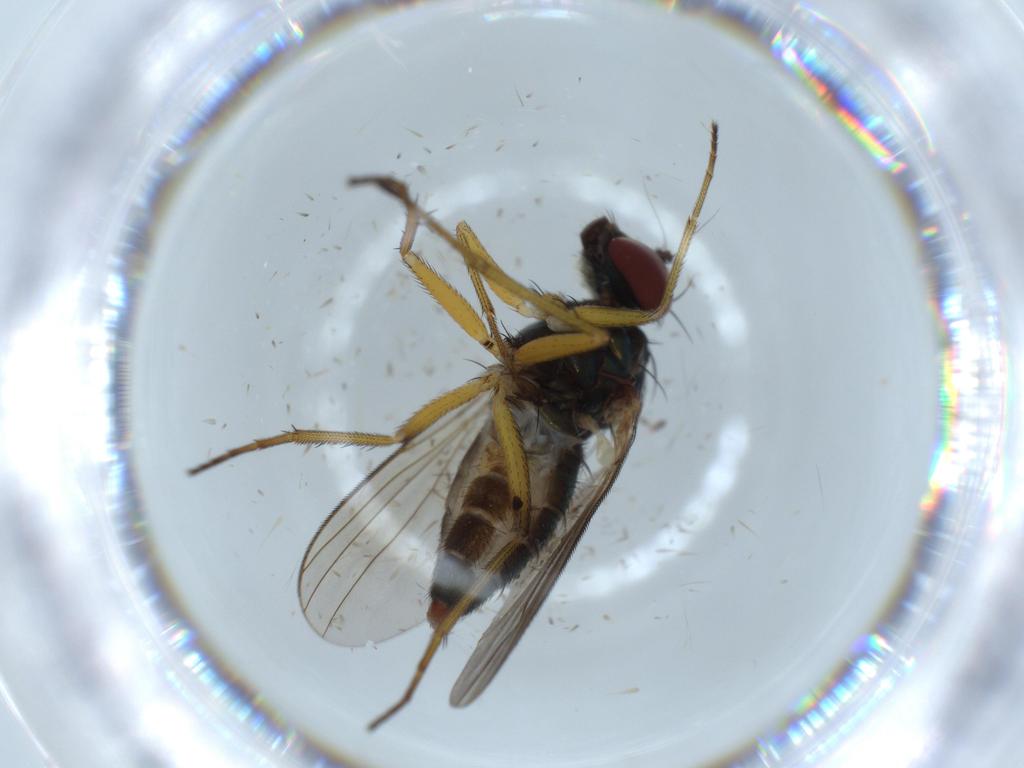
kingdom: Animalia
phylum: Arthropoda
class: Insecta
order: Diptera
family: Dolichopodidae
